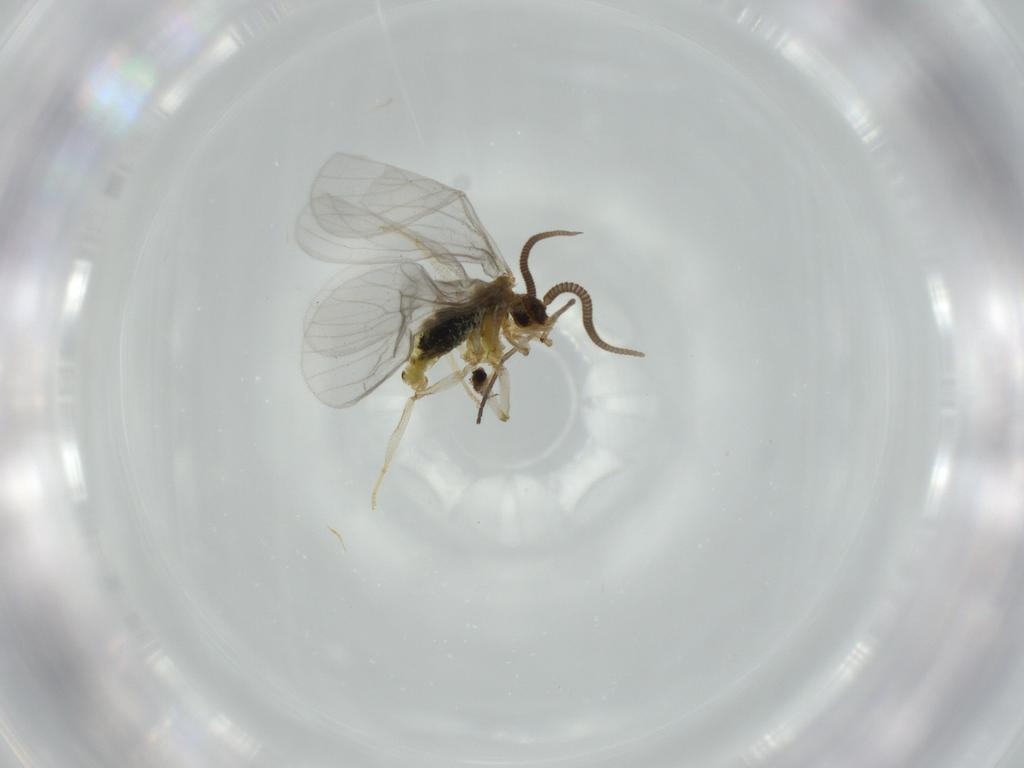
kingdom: Animalia
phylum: Arthropoda
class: Insecta
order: Neuroptera
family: Coniopterygidae
